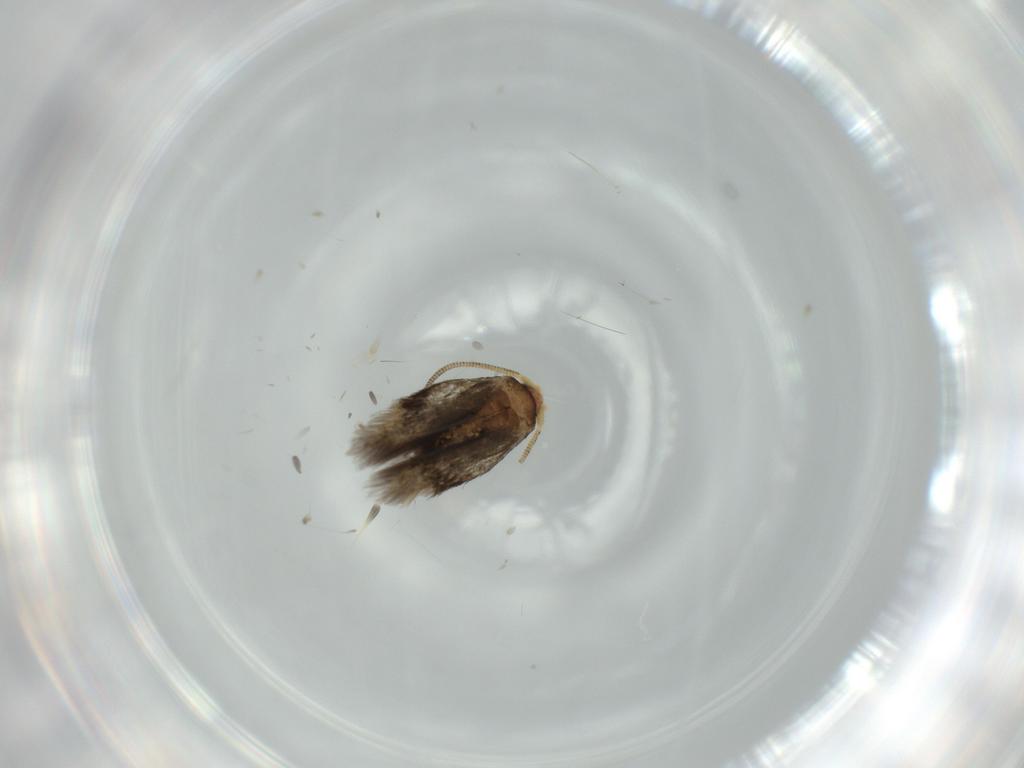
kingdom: Animalia
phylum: Arthropoda
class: Insecta
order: Lepidoptera
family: Nepticulidae
